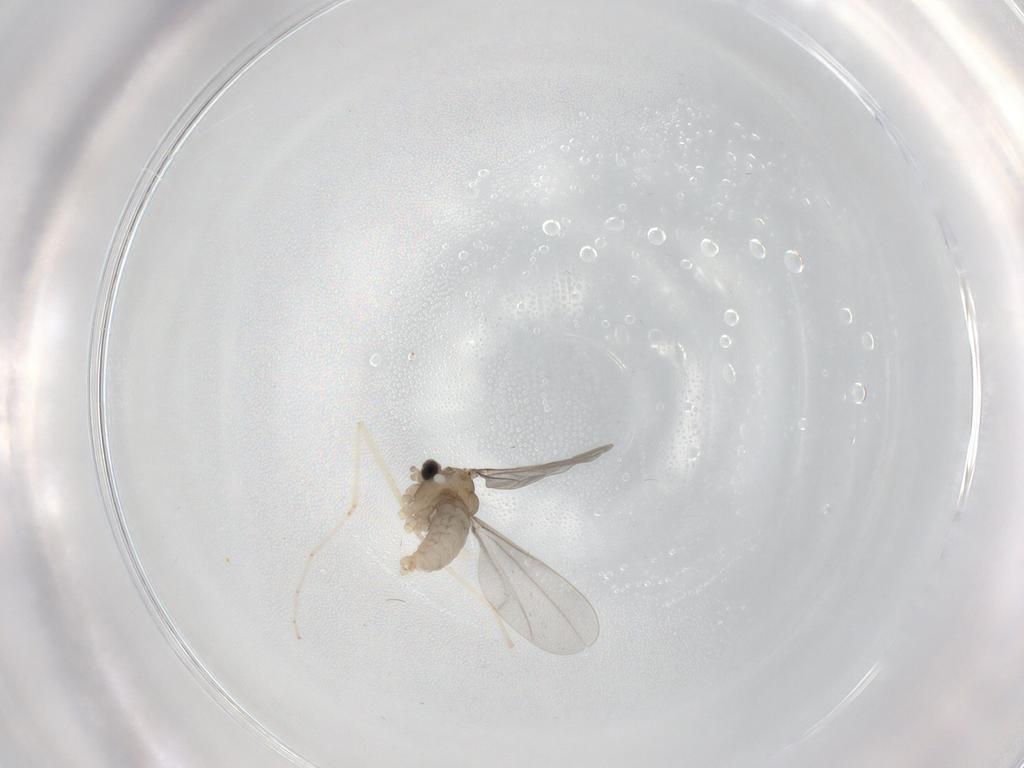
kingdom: Animalia
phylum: Arthropoda
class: Insecta
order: Diptera
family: Cecidomyiidae
